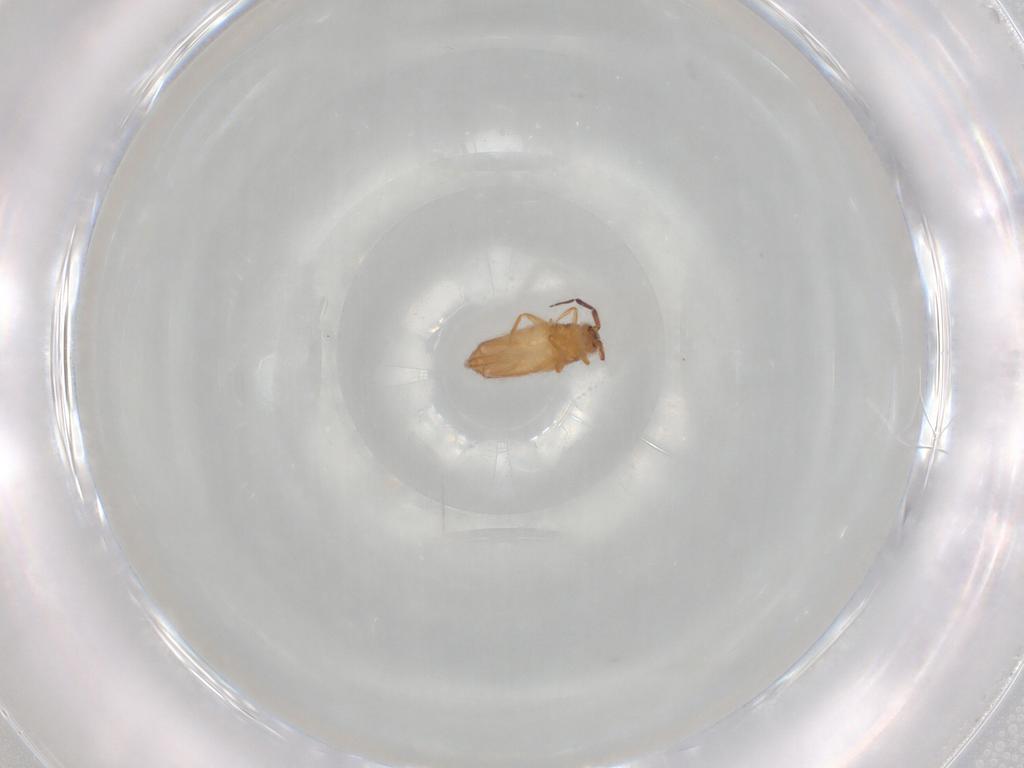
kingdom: Animalia
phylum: Arthropoda
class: Collembola
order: Entomobryomorpha
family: Entomobryidae
